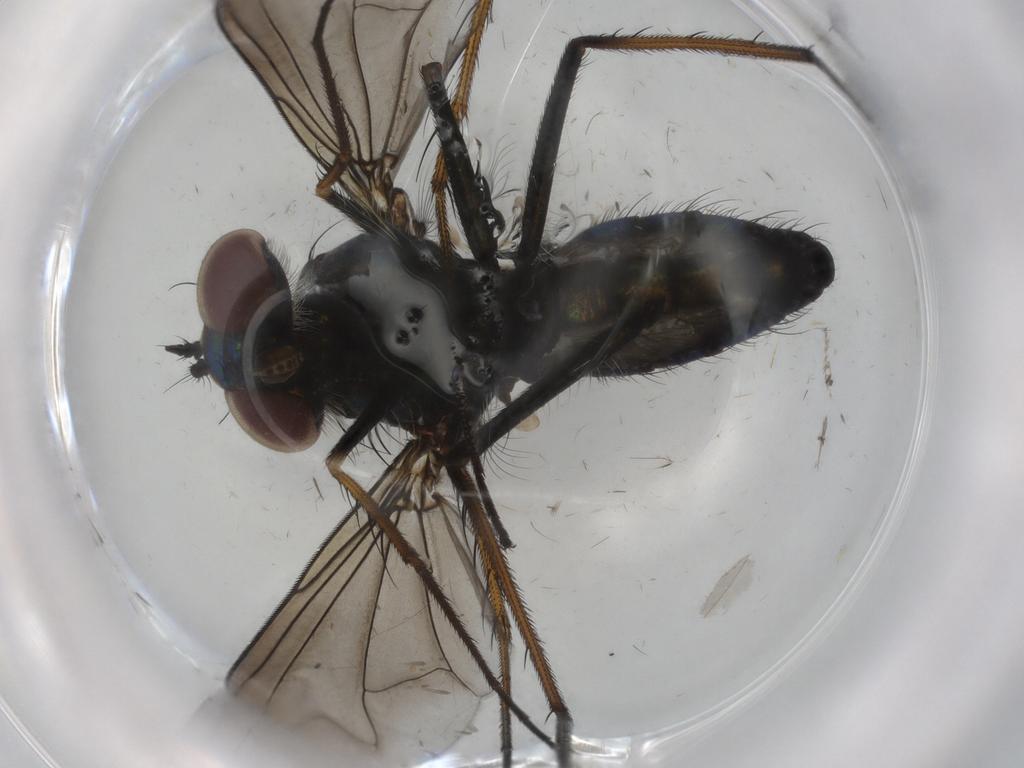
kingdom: Animalia
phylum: Arthropoda
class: Insecta
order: Diptera
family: Dolichopodidae
